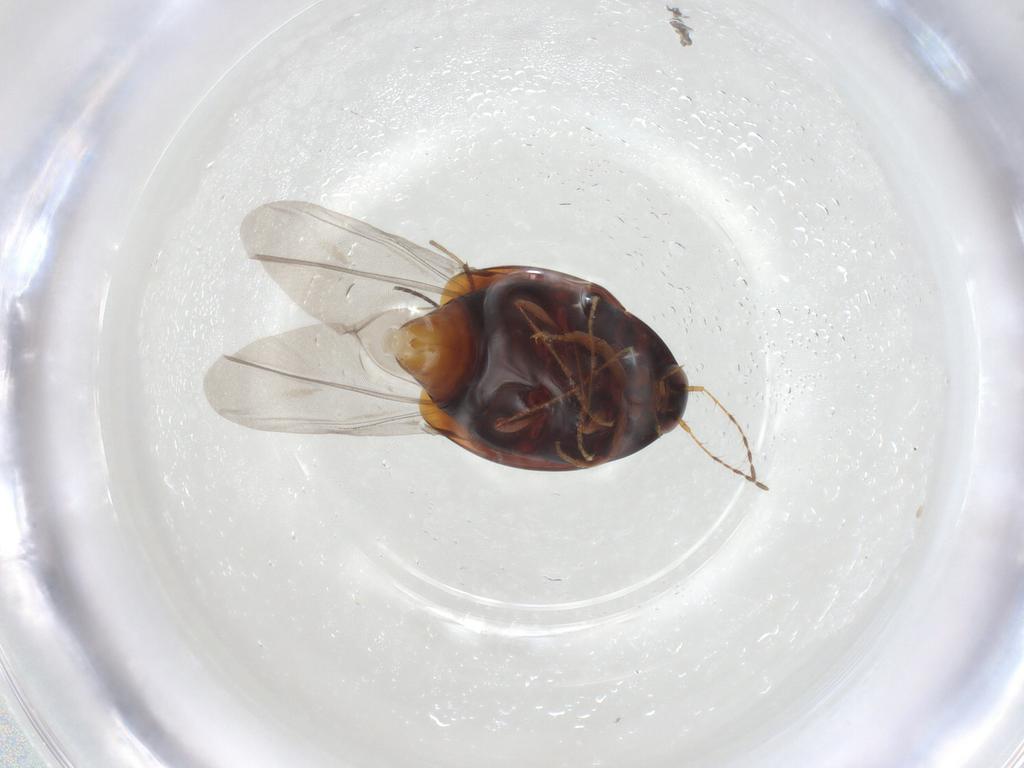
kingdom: Animalia
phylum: Arthropoda
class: Insecta
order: Coleoptera
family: Staphylinidae
